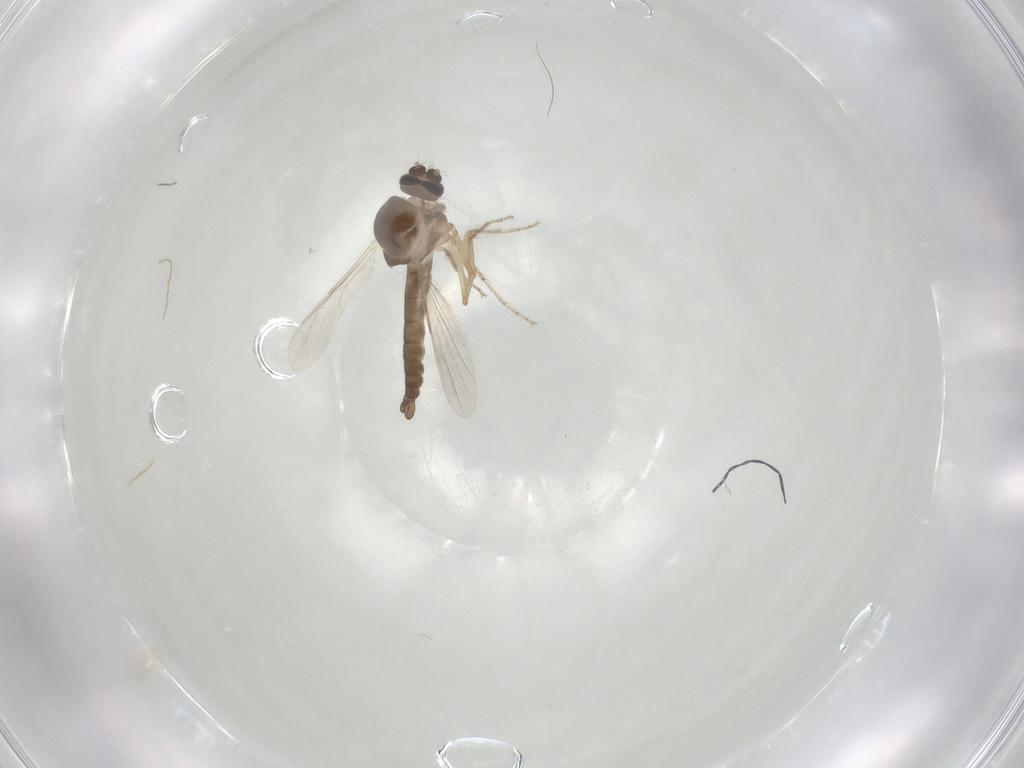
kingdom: Animalia
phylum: Arthropoda
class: Insecta
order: Diptera
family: Ceratopogonidae
